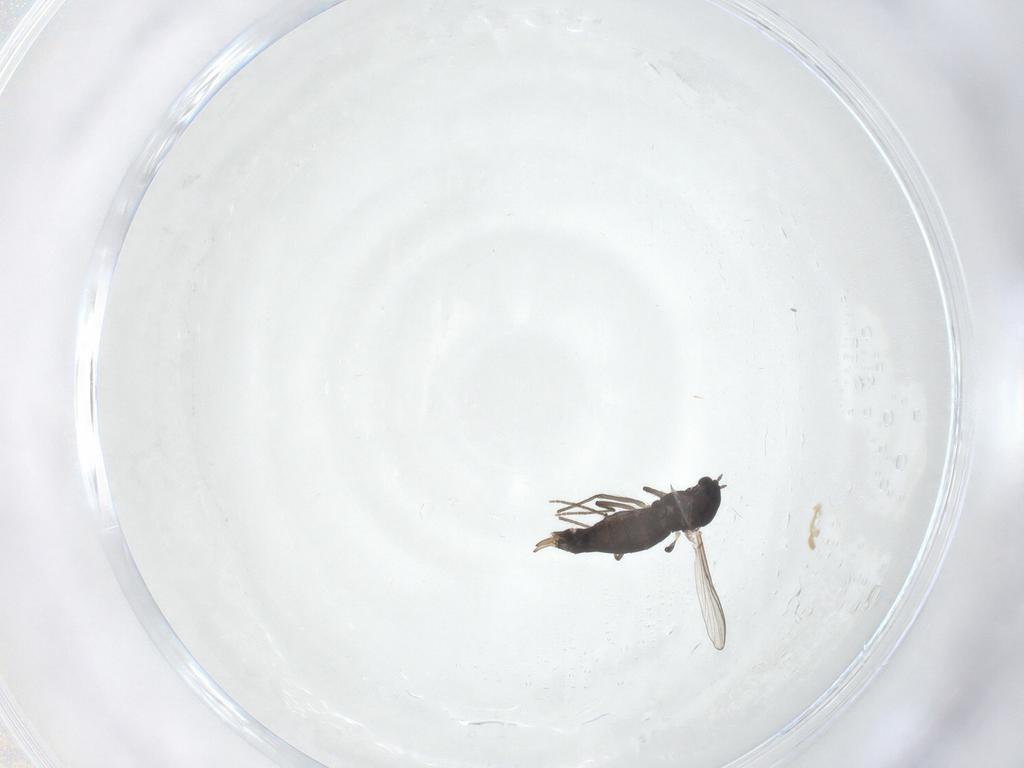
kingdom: Animalia
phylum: Arthropoda
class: Insecta
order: Diptera
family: Chironomidae
